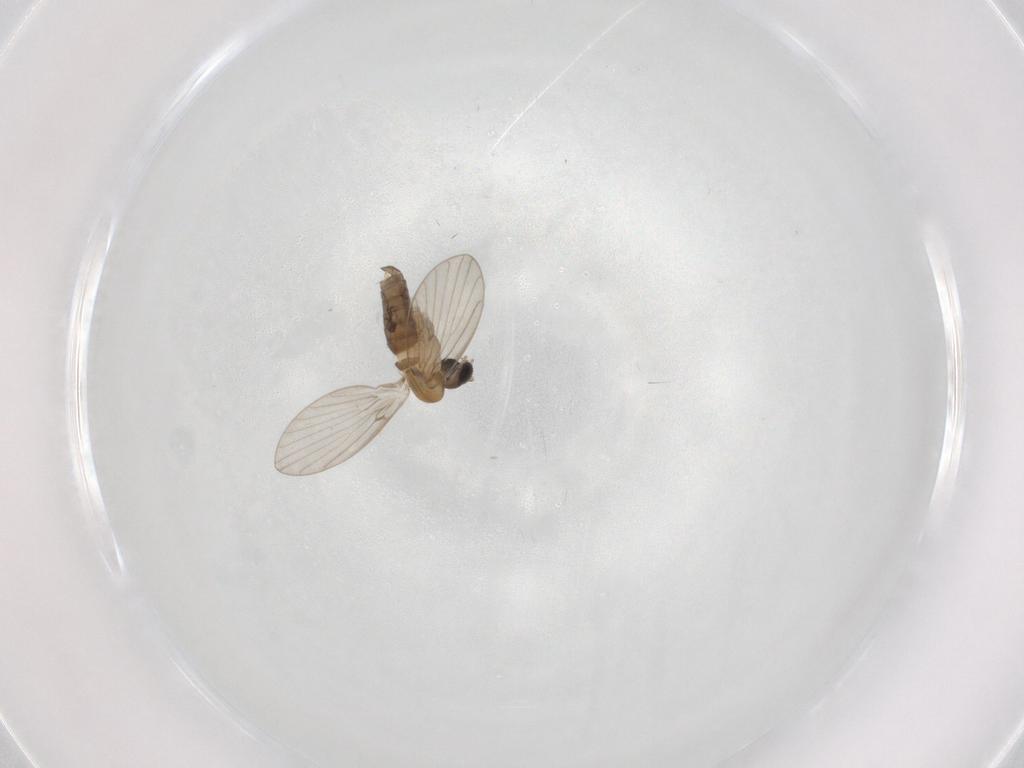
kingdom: Animalia
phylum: Arthropoda
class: Insecta
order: Diptera
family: Psychodidae
